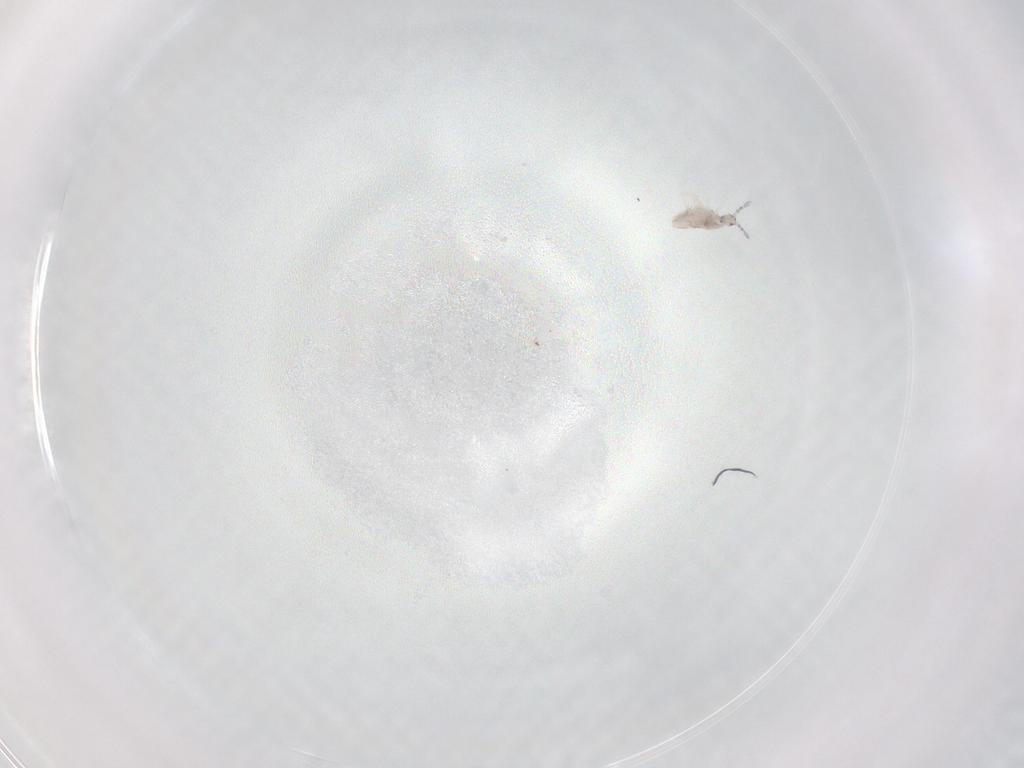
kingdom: Animalia
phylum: Arthropoda
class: Collembola
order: Entomobryomorpha
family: Entomobryidae
